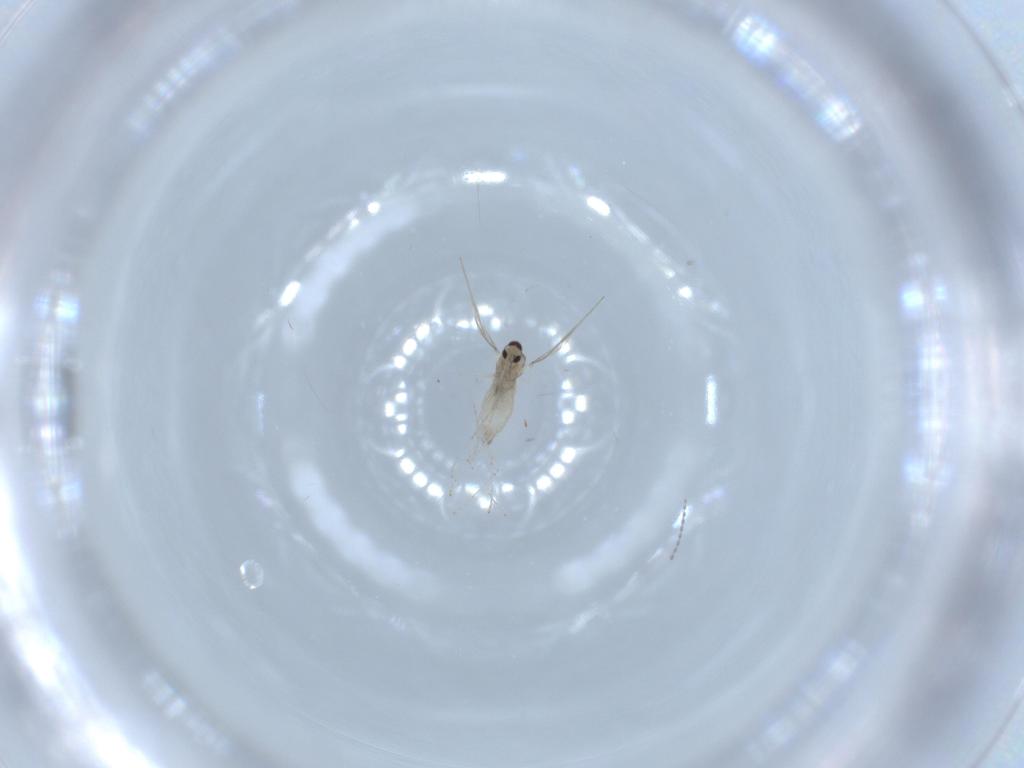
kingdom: Animalia
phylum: Arthropoda
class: Insecta
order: Diptera
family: Cecidomyiidae
